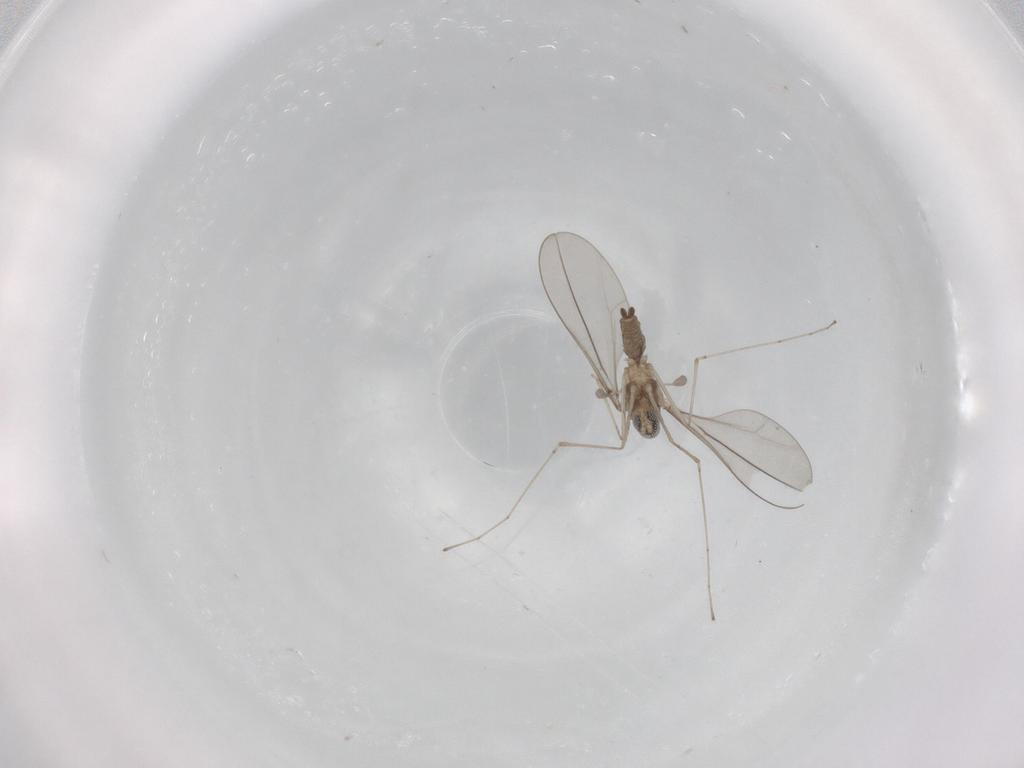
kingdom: Animalia
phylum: Arthropoda
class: Insecta
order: Diptera
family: Cecidomyiidae
